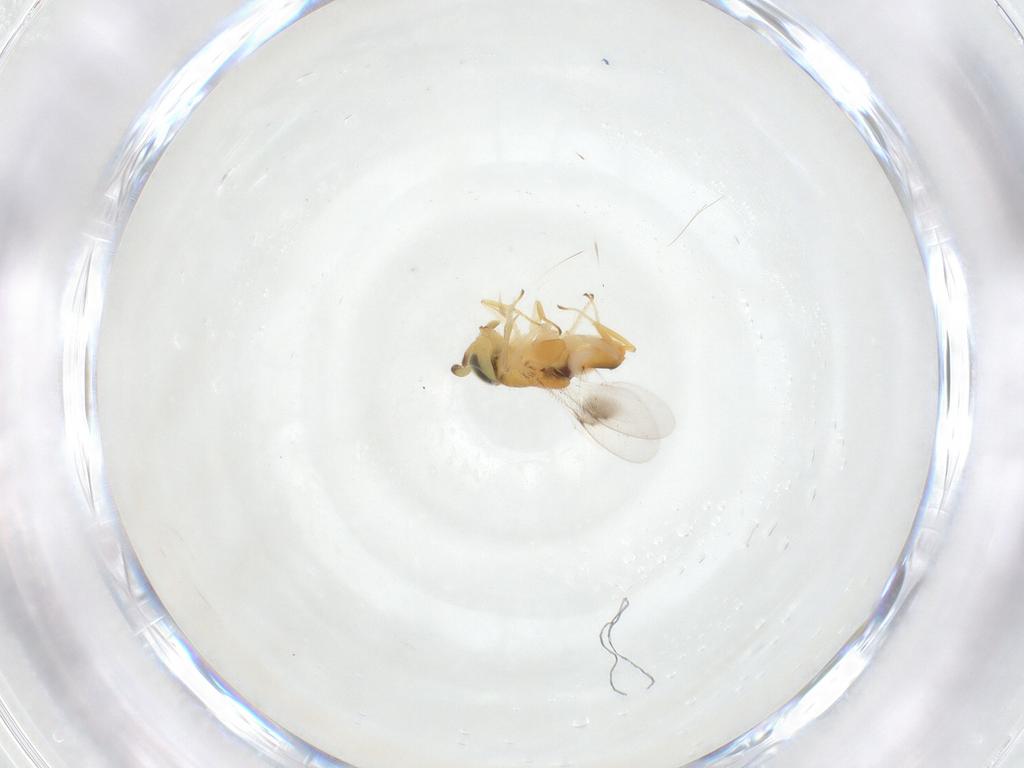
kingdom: Animalia
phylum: Arthropoda
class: Insecta
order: Hymenoptera
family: Encyrtidae
